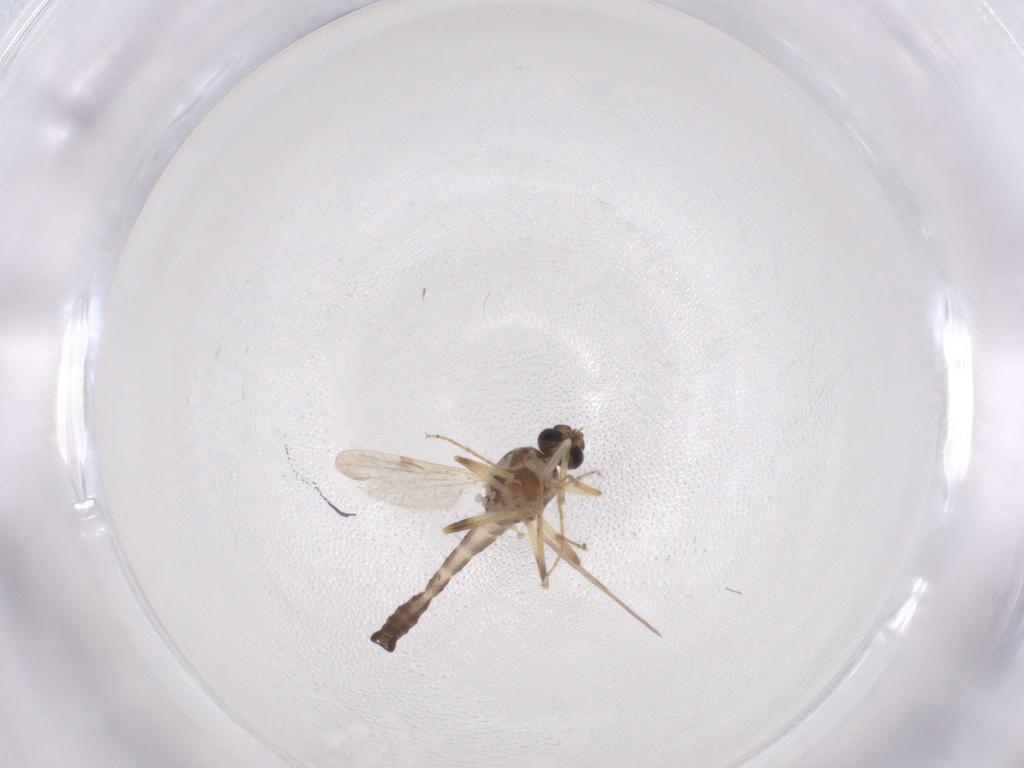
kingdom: Animalia
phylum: Arthropoda
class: Insecta
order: Diptera
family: Ceratopogonidae
